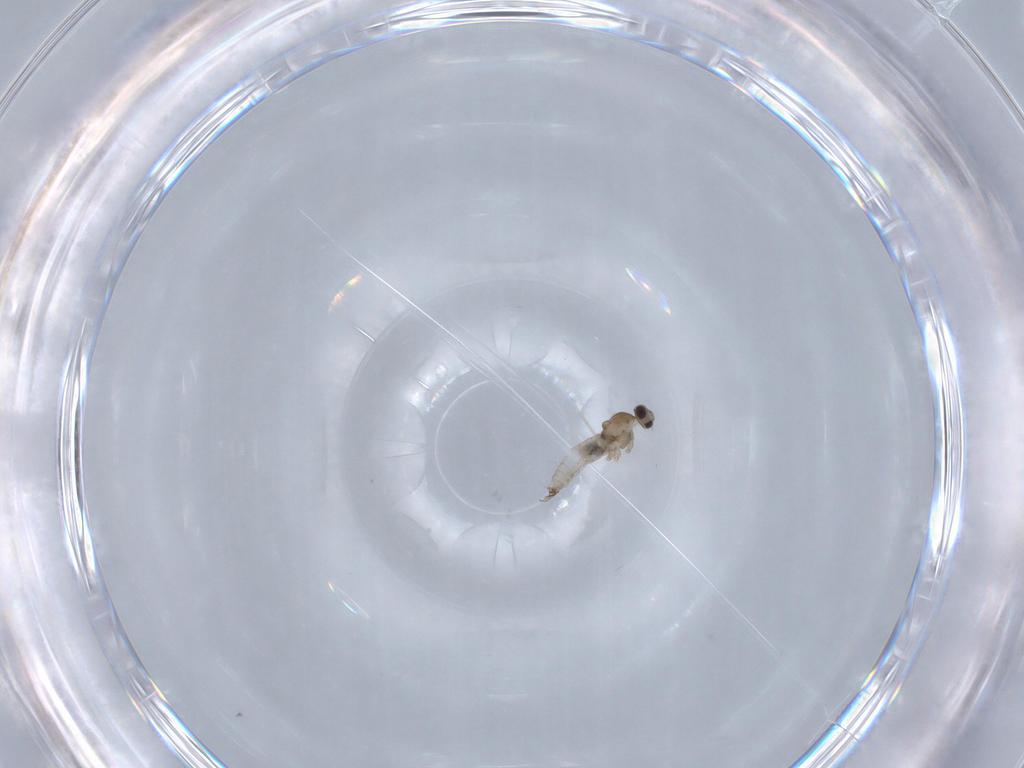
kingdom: Animalia
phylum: Arthropoda
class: Insecta
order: Diptera
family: Cecidomyiidae
